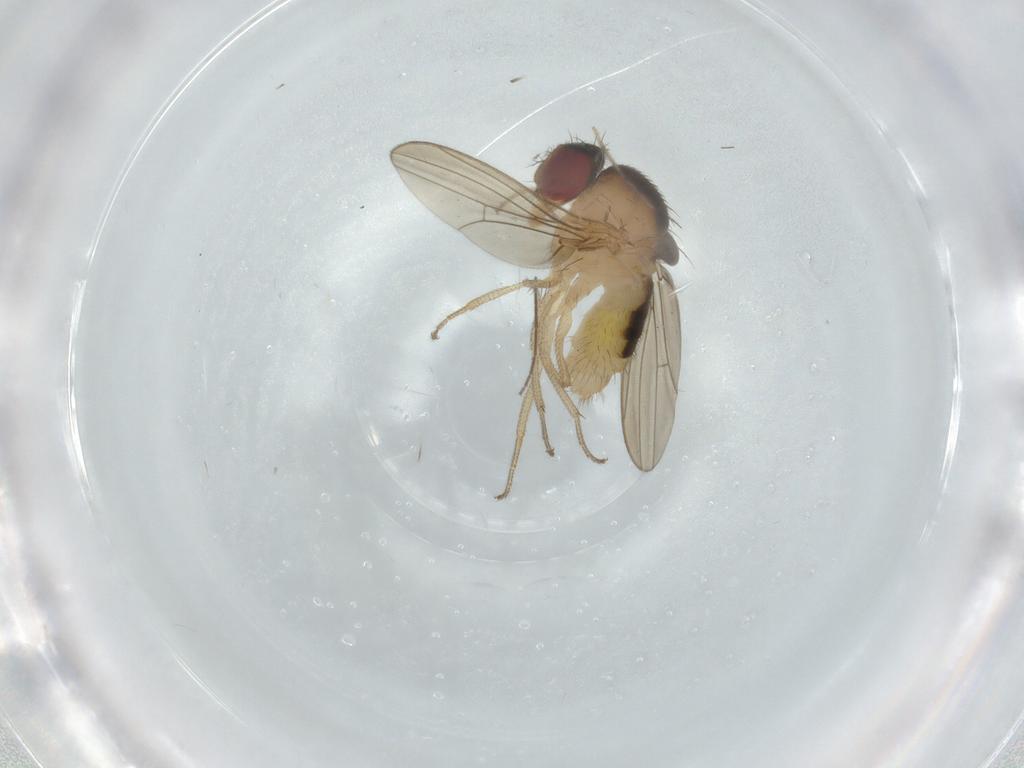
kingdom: Animalia
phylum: Arthropoda
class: Insecta
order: Diptera
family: Drosophilidae
